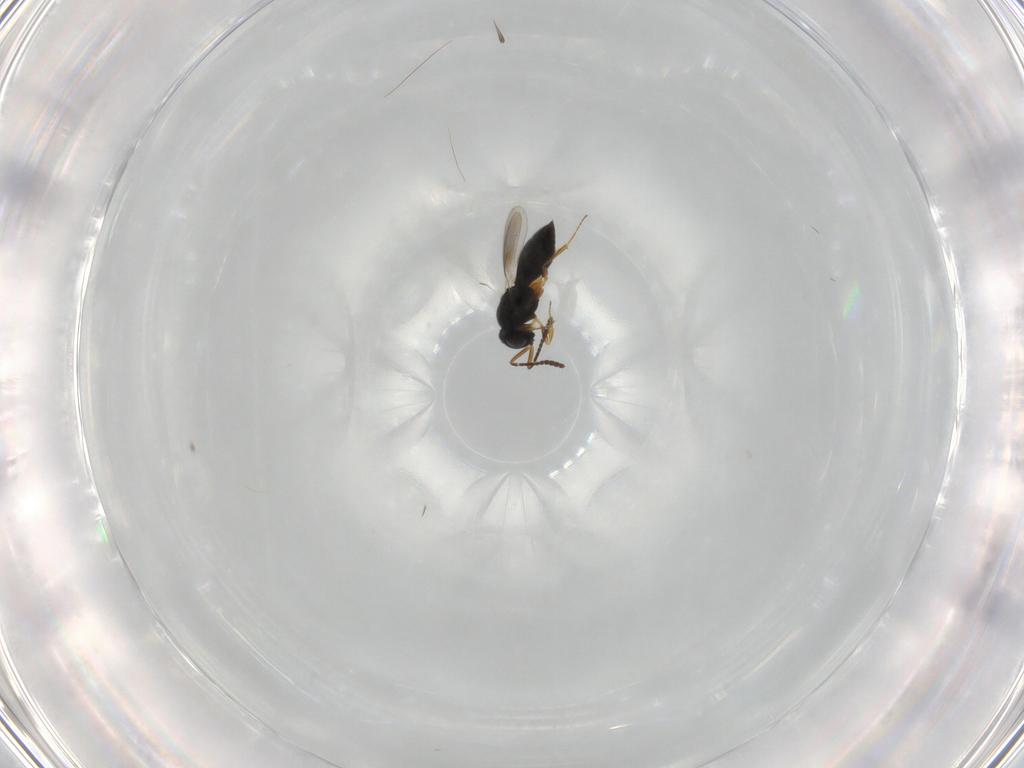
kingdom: Animalia
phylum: Arthropoda
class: Insecta
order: Hymenoptera
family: Scelionidae
